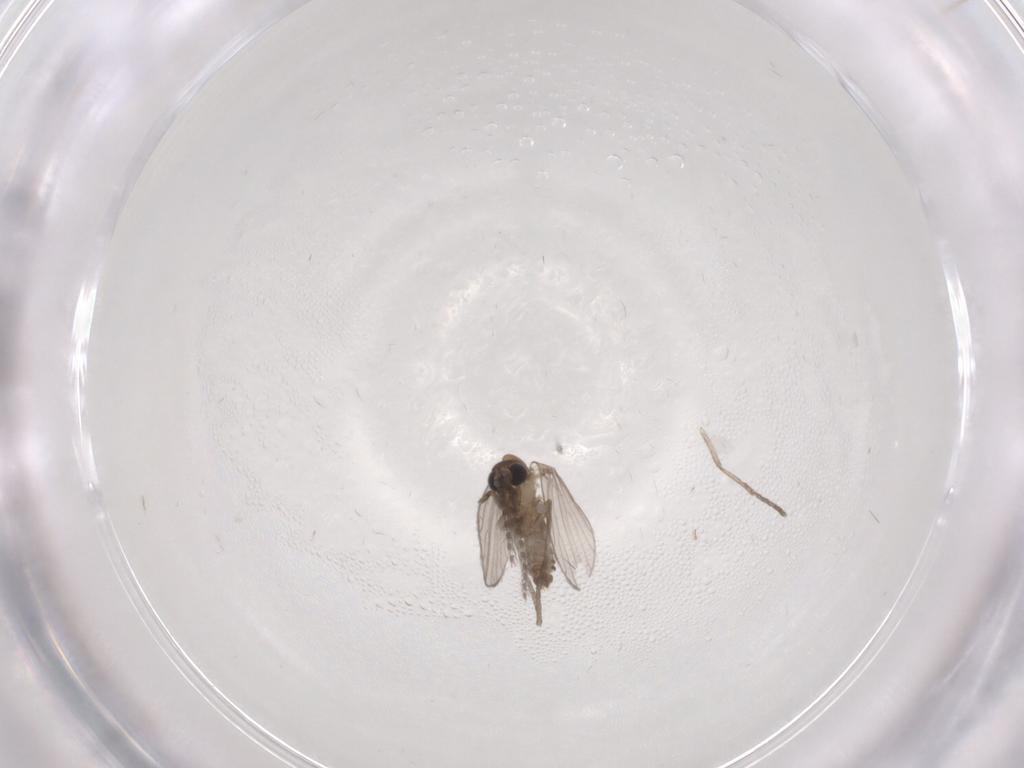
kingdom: Animalia
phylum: Arthropoda
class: Insecta
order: Diptera
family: Psychodidae
